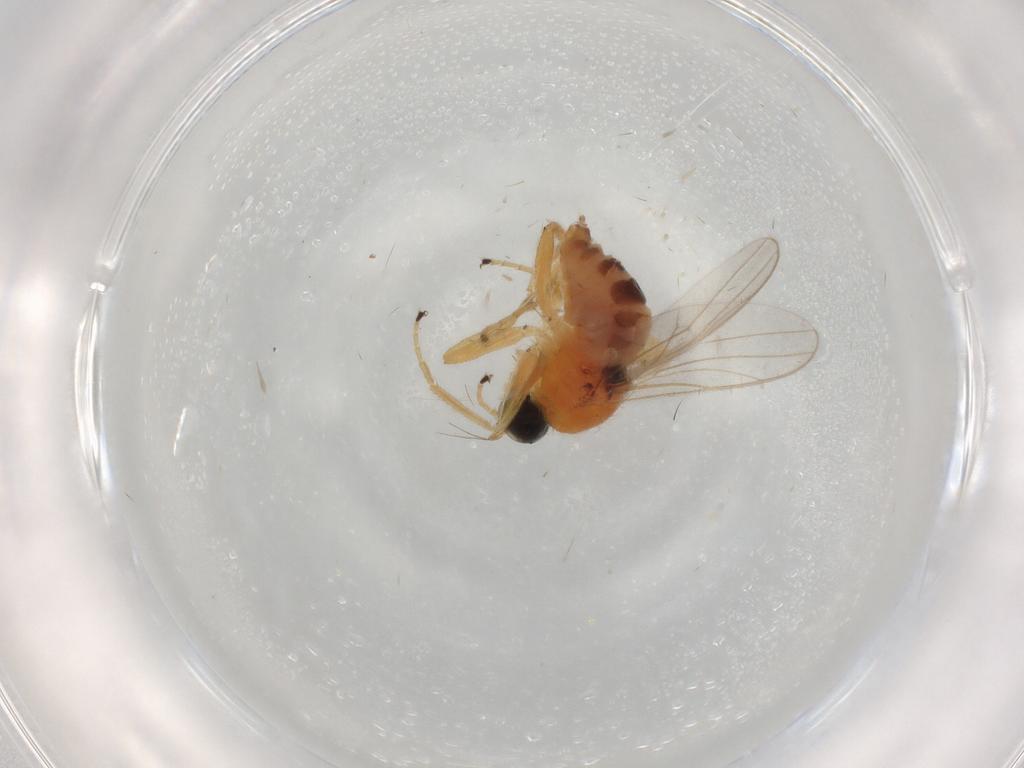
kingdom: Animalia
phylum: Arthropoda
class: Insecta
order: Diptera
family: Hybotidae
